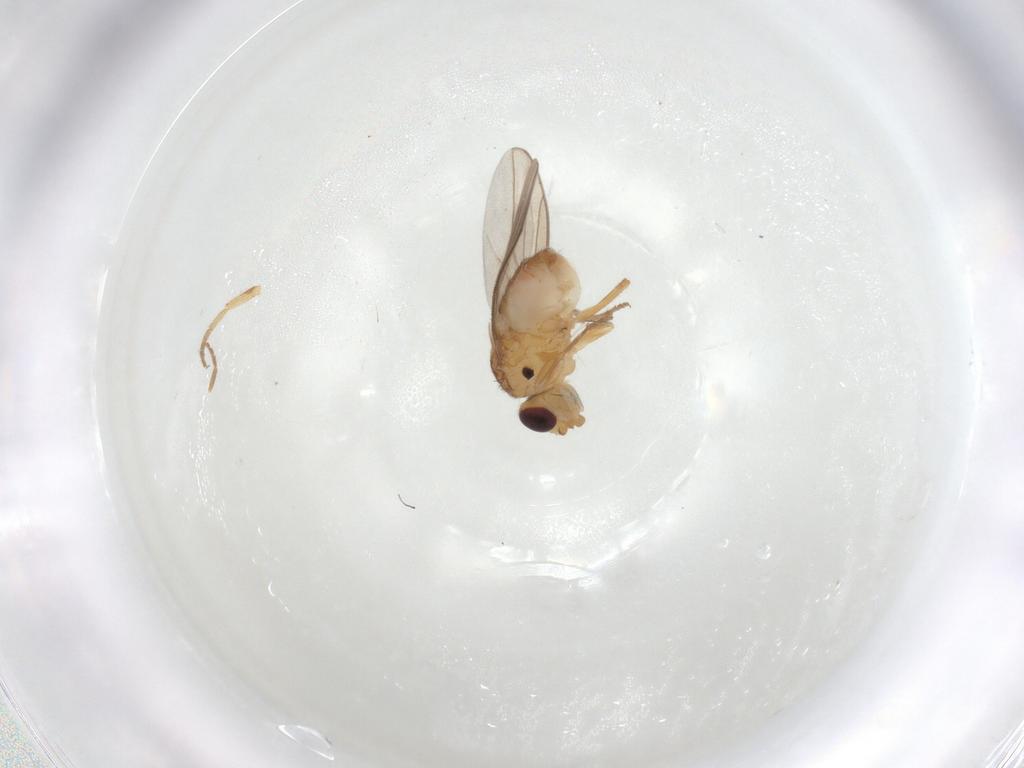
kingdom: Animalia
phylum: Arthropoda
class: Insecta
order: Diptera
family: Chloropidae
